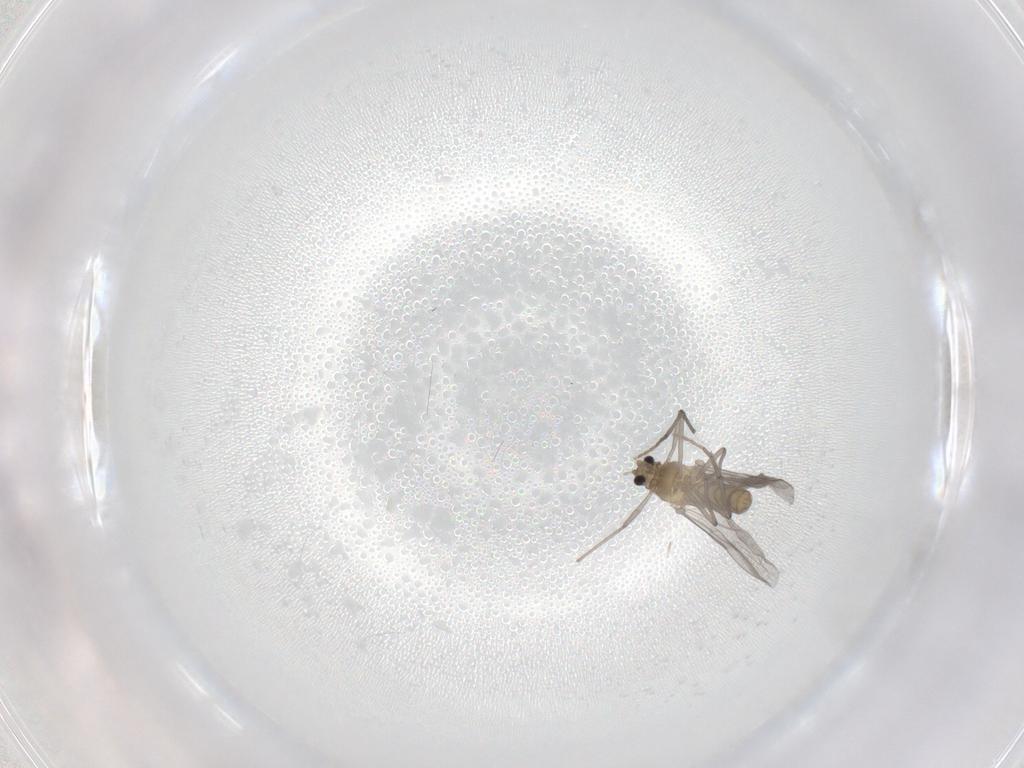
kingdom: Animalia
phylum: Arthropoda
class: Insecta
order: Diptera
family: Chironomidae
